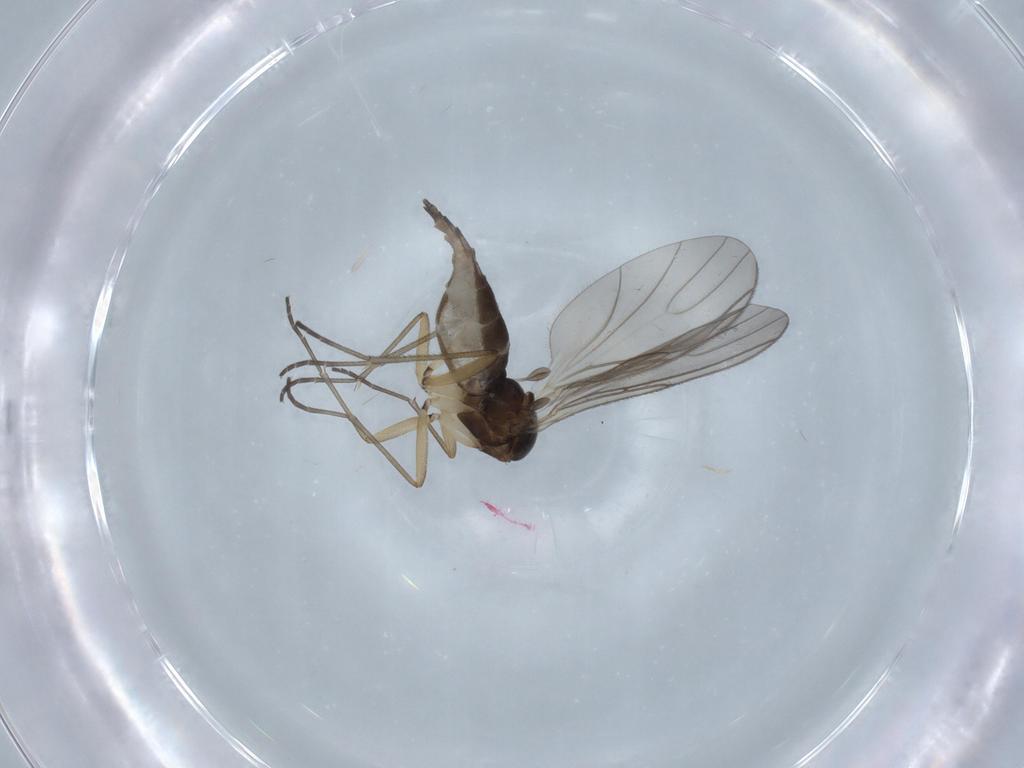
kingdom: Animalia
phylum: Arthropoda
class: Insecta
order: Diptera
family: Sciaridae
